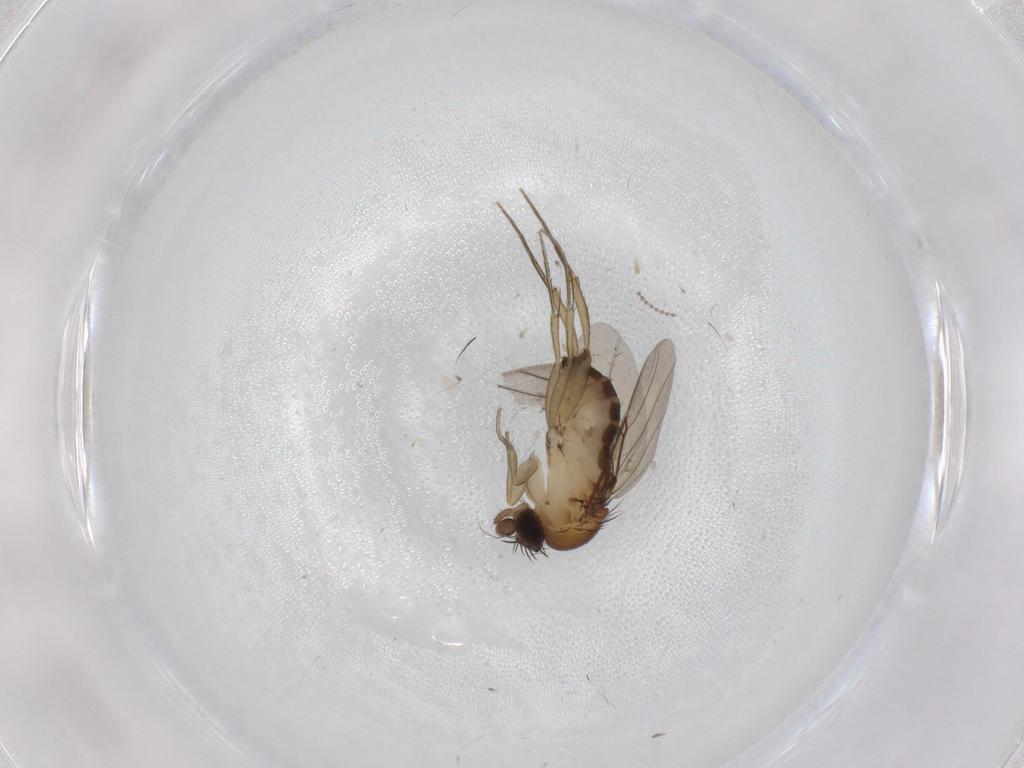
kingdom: Animalia
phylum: Arthropoda
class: Insecta
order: Diptera
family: Phoridae
